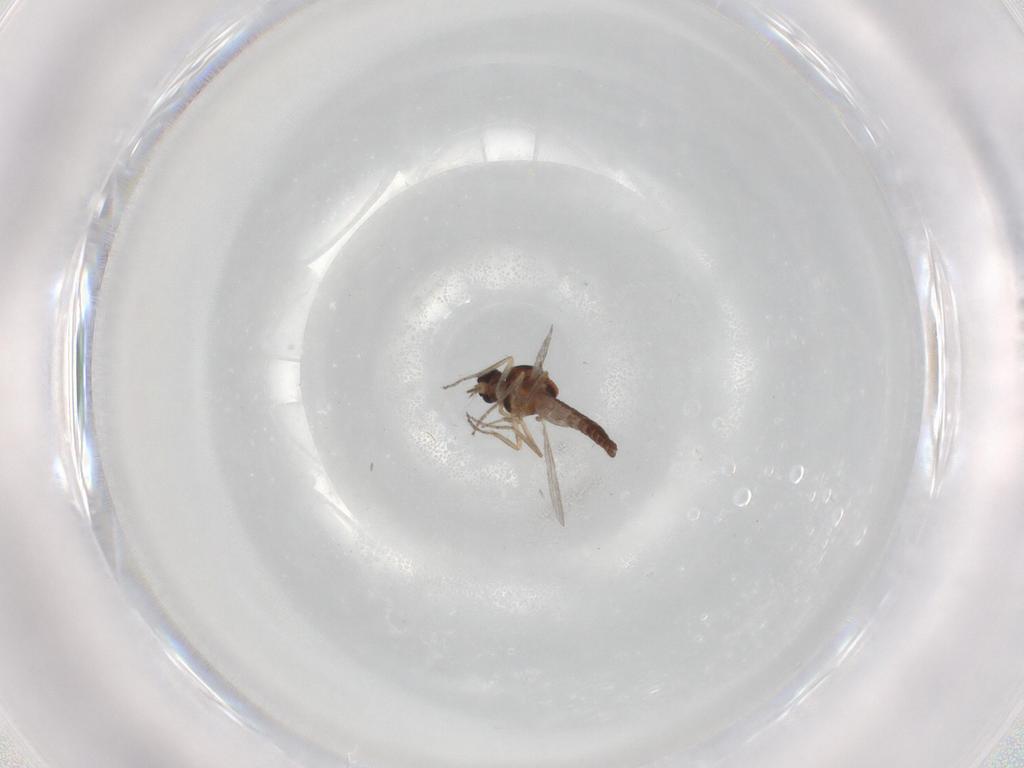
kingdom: Animalia
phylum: Arthropoda
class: Insecta
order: Diptera
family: Ceratopogonidae
